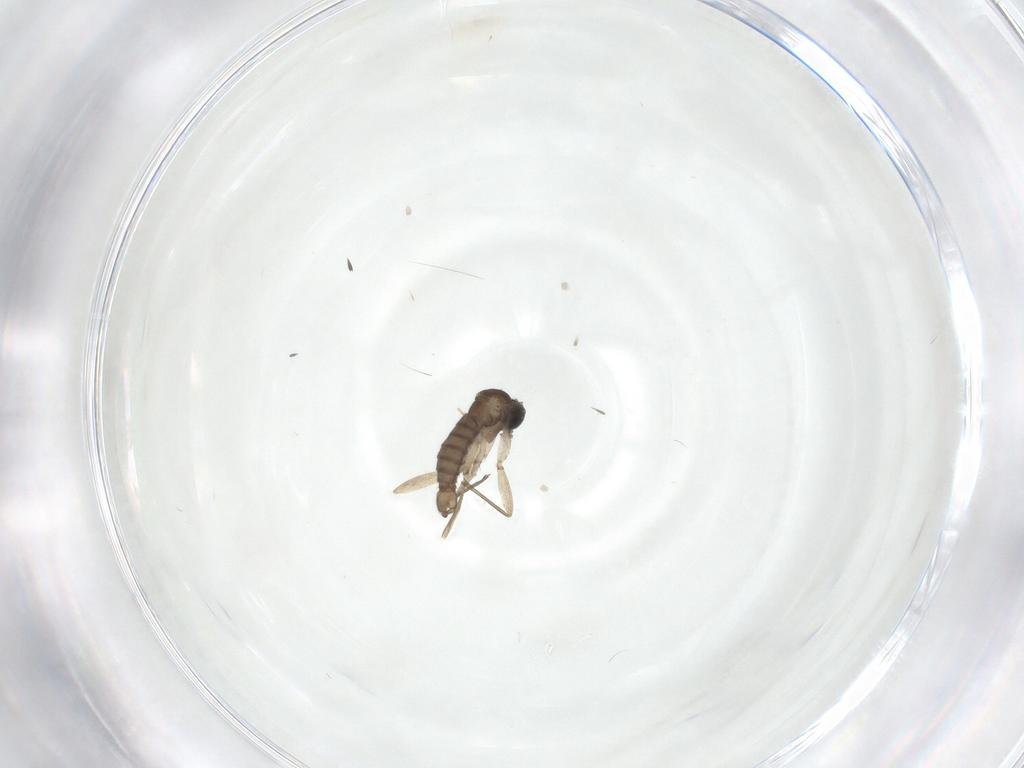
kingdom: Animalia
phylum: Arthropoda
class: Insecta
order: Diptera
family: Sciaridae
